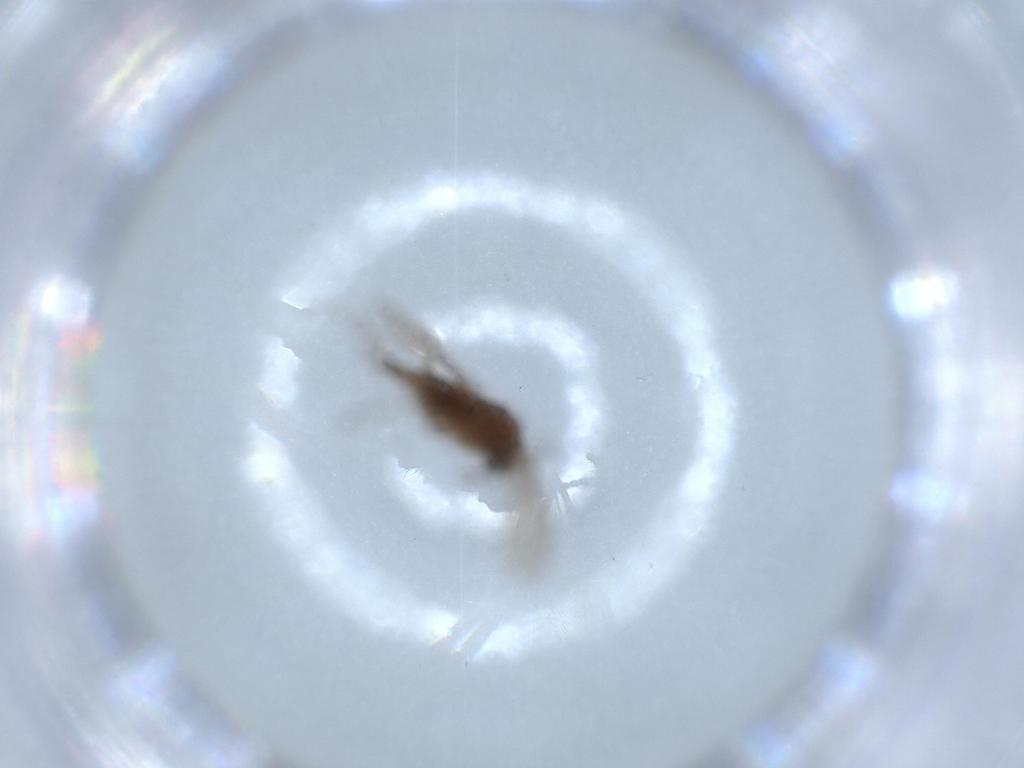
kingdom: Animalia
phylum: Arthropoda
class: Insecta
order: Diptera
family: Sciaridae
